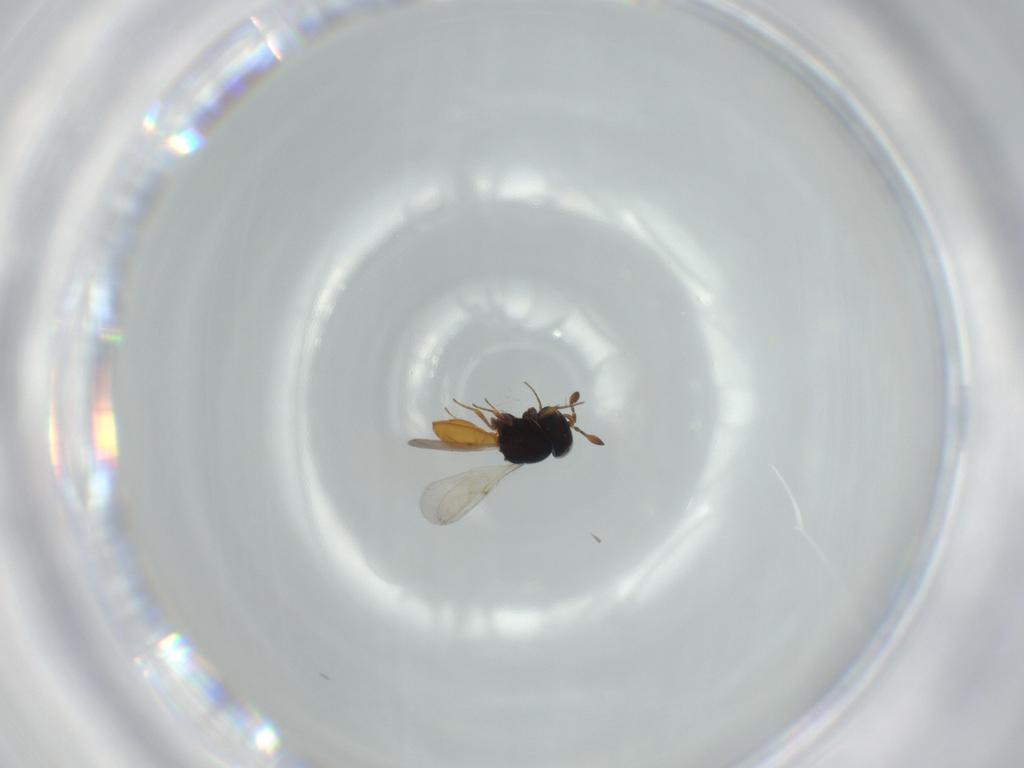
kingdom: Animalia
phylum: Arthropoda
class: Insecta
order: Hymenoptera
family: Scelionidae
